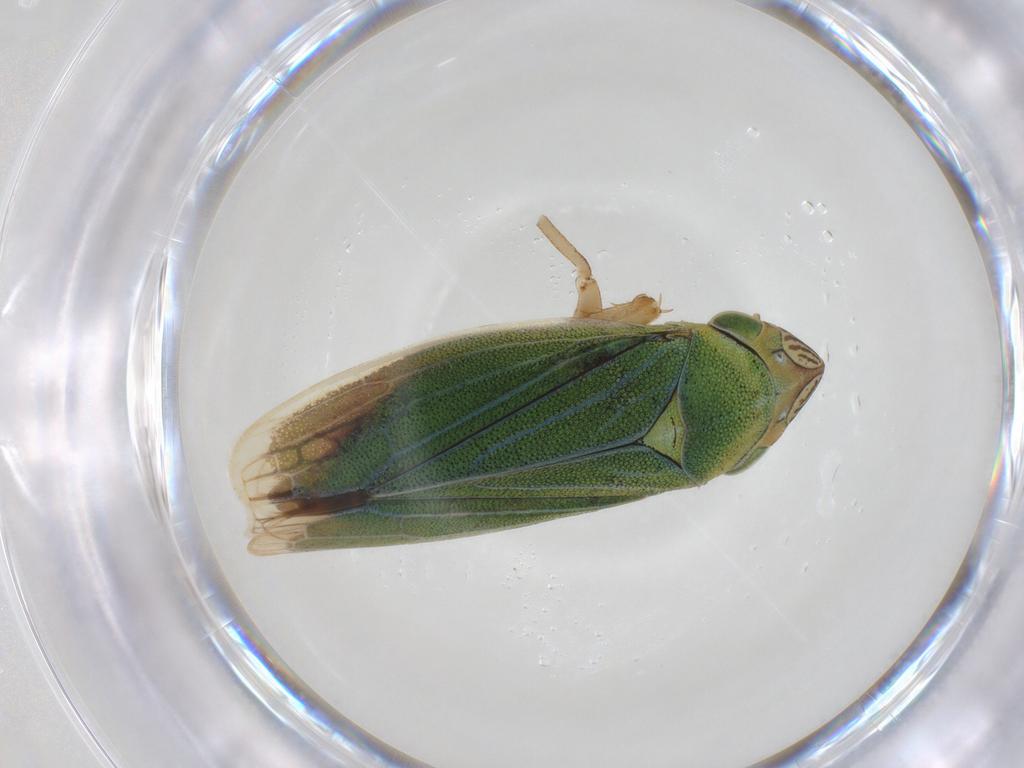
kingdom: Animalia
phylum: Arthropoda
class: Insecta
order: Hemiptera
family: Cicadellidae
